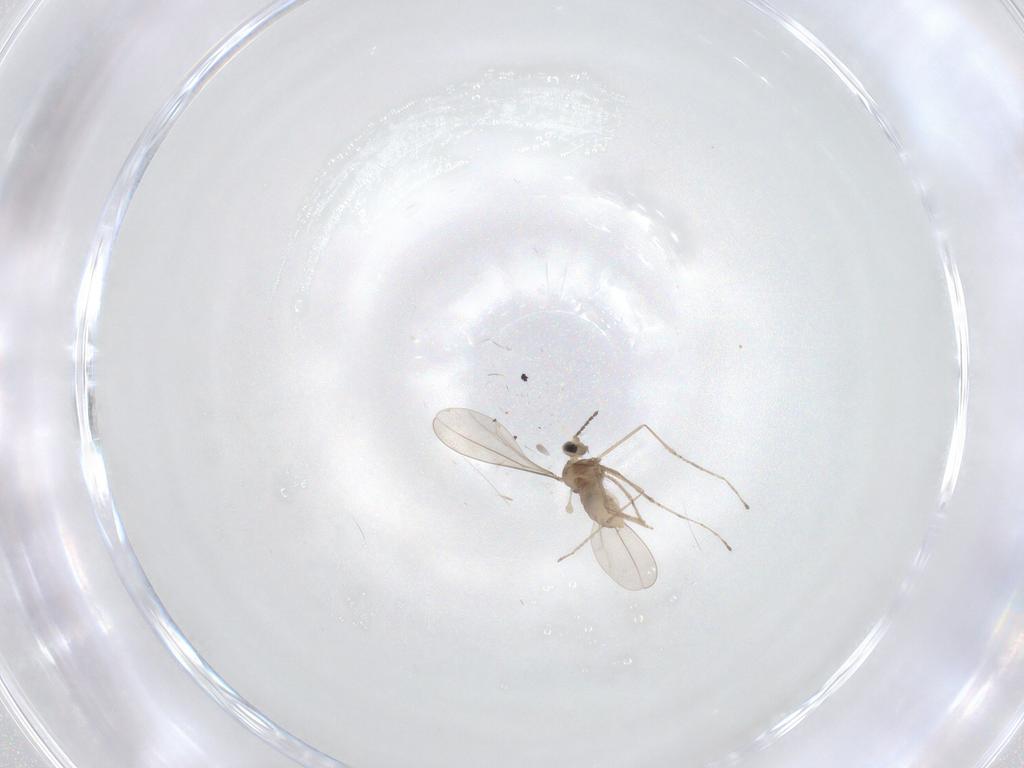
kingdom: Animalia
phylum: Arthropoda
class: Insecta
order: Diptera
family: Cecidomyiidae
